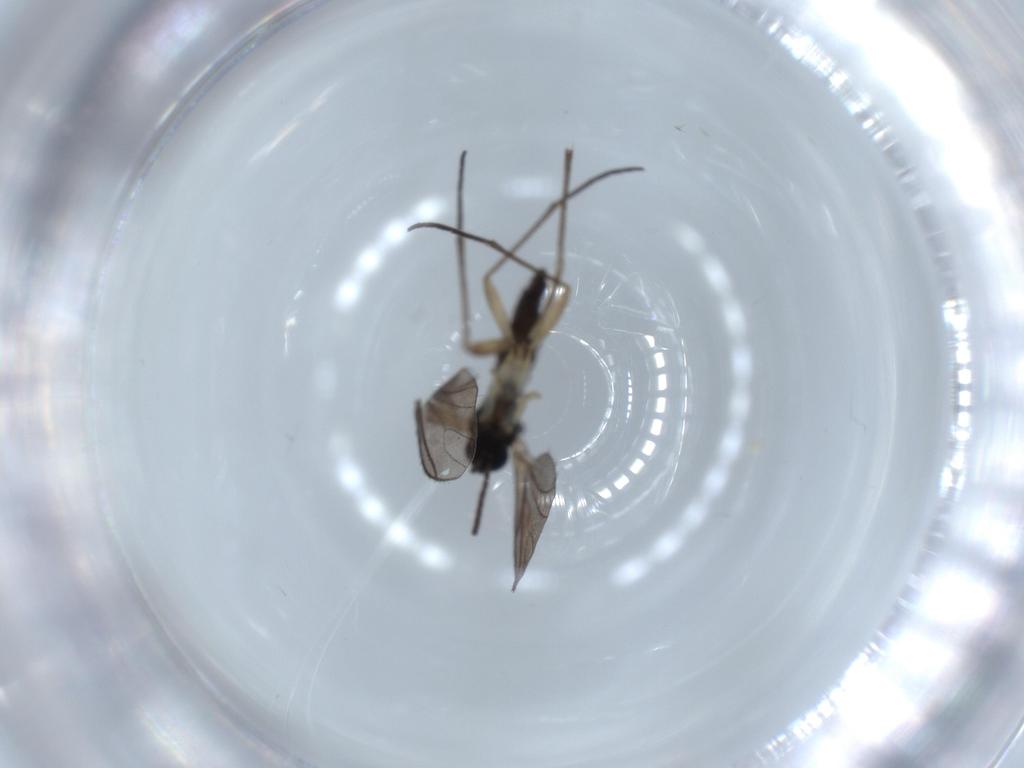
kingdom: Animalia
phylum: Arthropoda
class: Insecta
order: Diptera
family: Sciaridae
